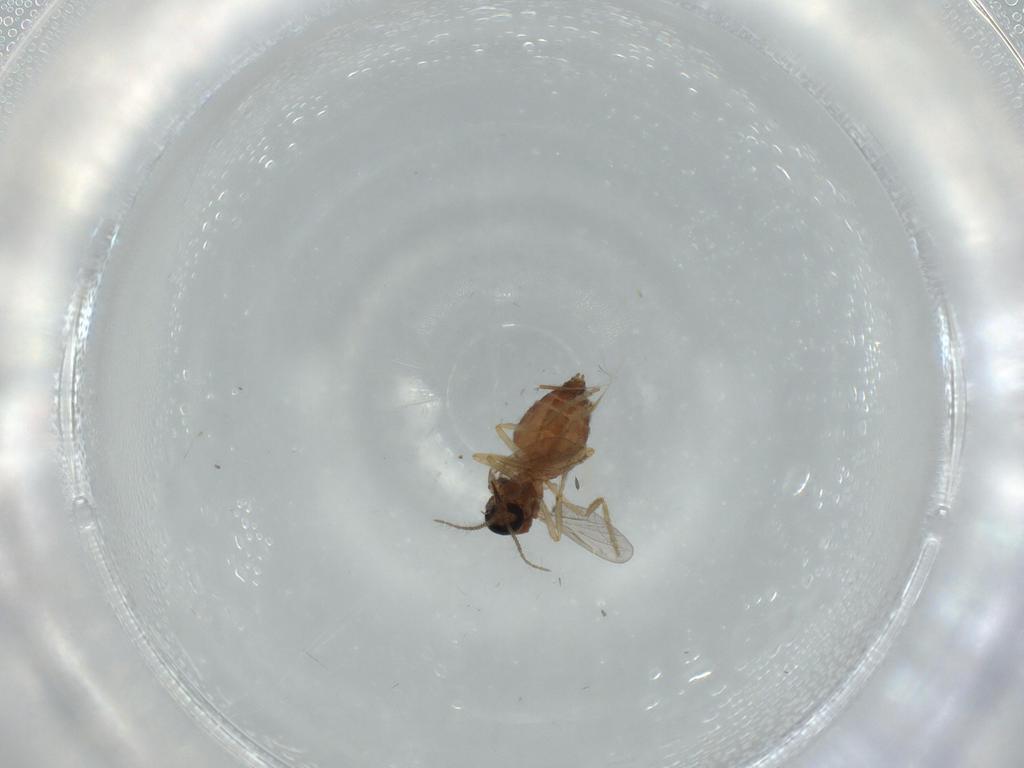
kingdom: Animalia
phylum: Arthropoda
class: Insecta
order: Diptera
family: Ceratopogonidae
